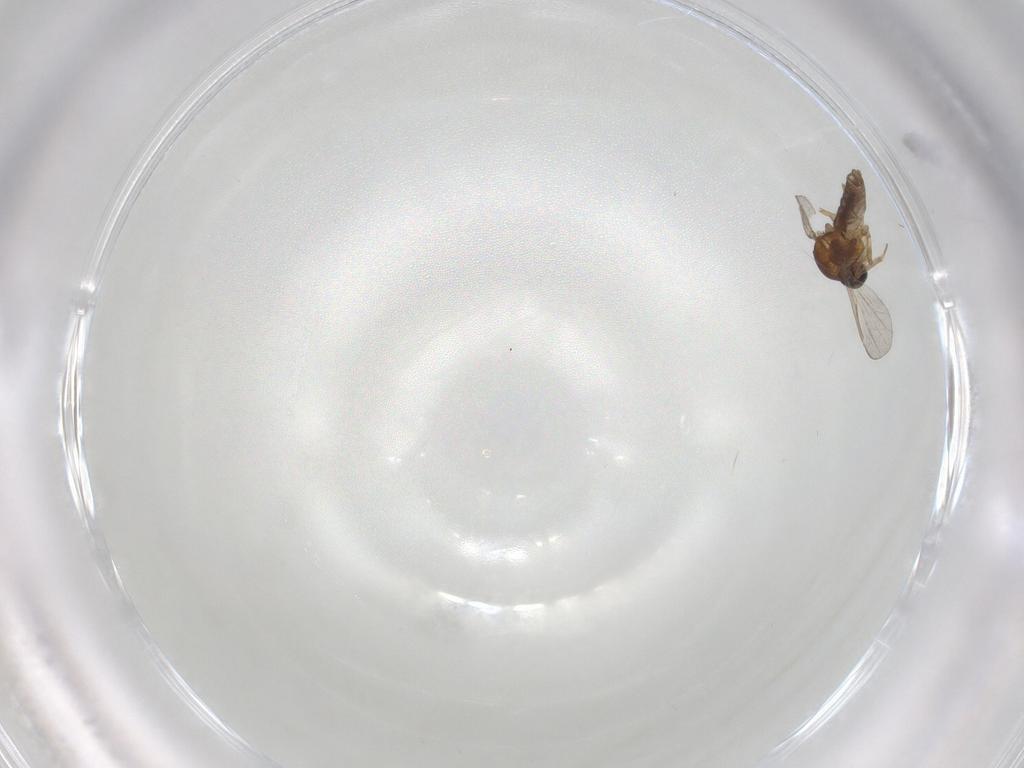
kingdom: Animalia
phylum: Arthropoda
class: Insecta
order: Diptera
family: Ceratopogonidae
